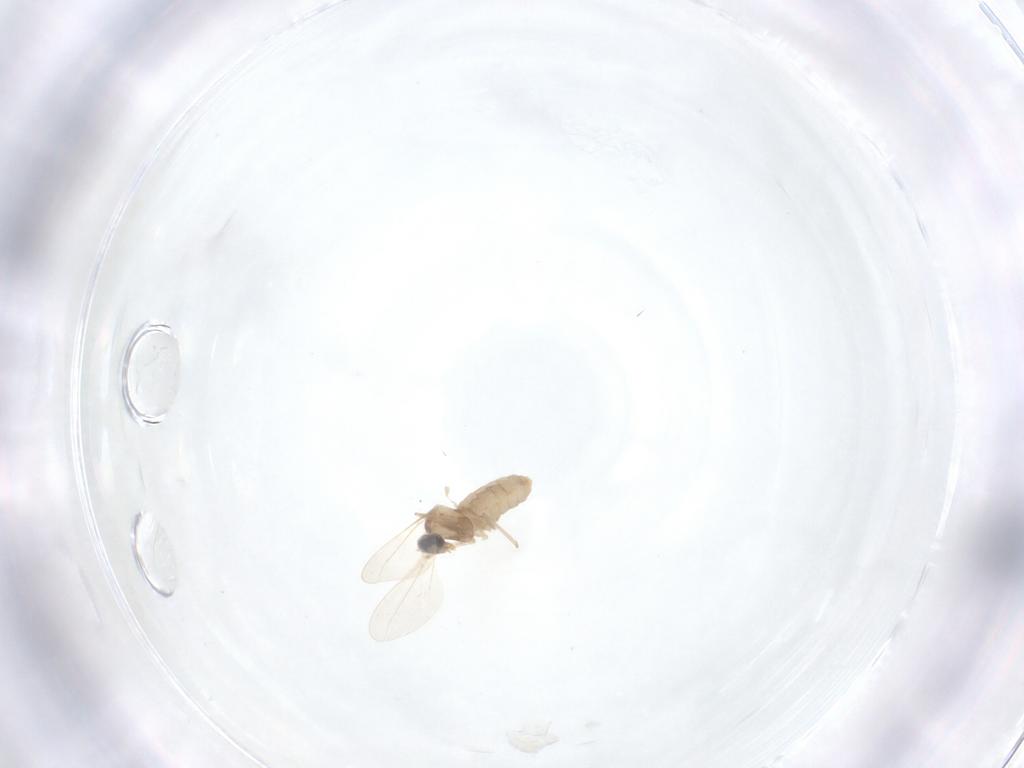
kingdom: Animalia
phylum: Arthropoda
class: Insecta
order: Diptera
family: Cecidomyiidae
